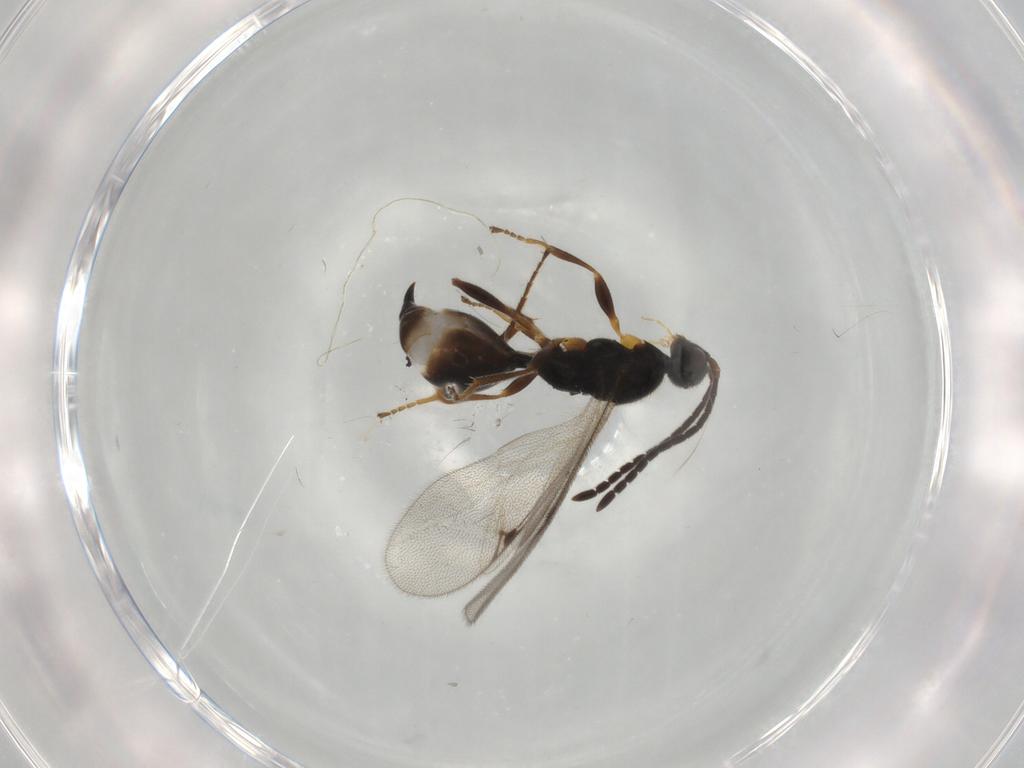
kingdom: Animalia
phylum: Arthropoda
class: Insecta
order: Hymenoptera
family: Proctotrupidae
